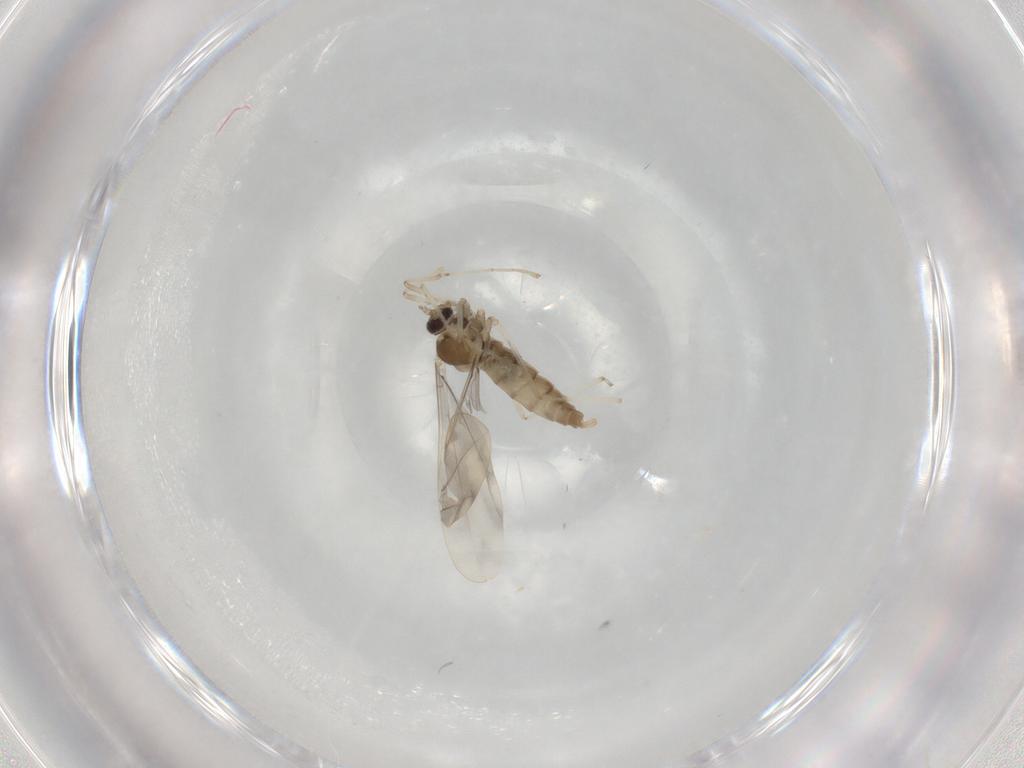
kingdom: Animalia
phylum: Arthropoda
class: Insecta
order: Diptera
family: Cecidomyiidae
